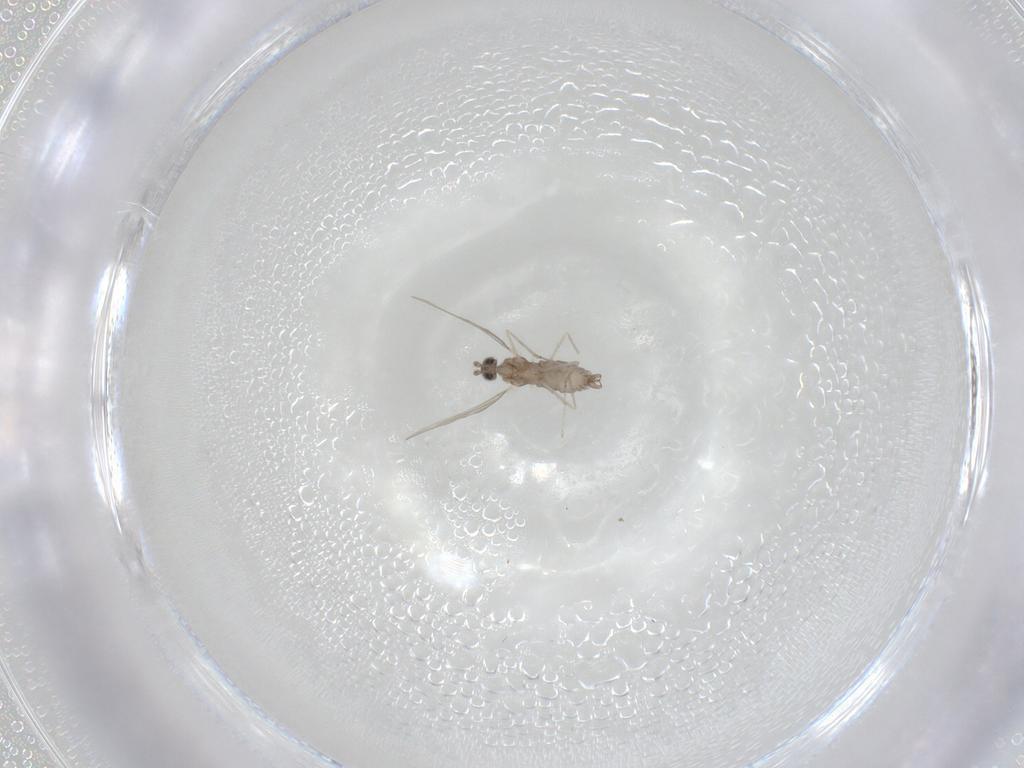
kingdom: Animalia
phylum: Arthropoda
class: Insecta
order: Diptera
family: Cecidomyiidae
